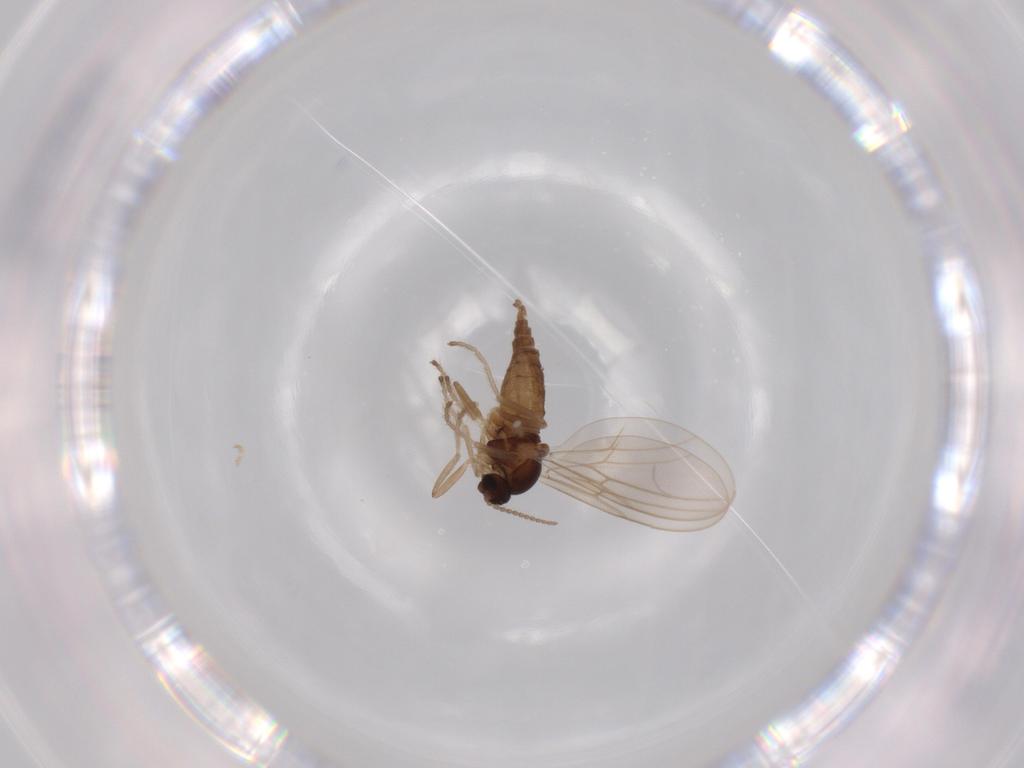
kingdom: Animalia
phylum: Arthropoda
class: Insecta
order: Diptera
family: Cecidomyiidae
